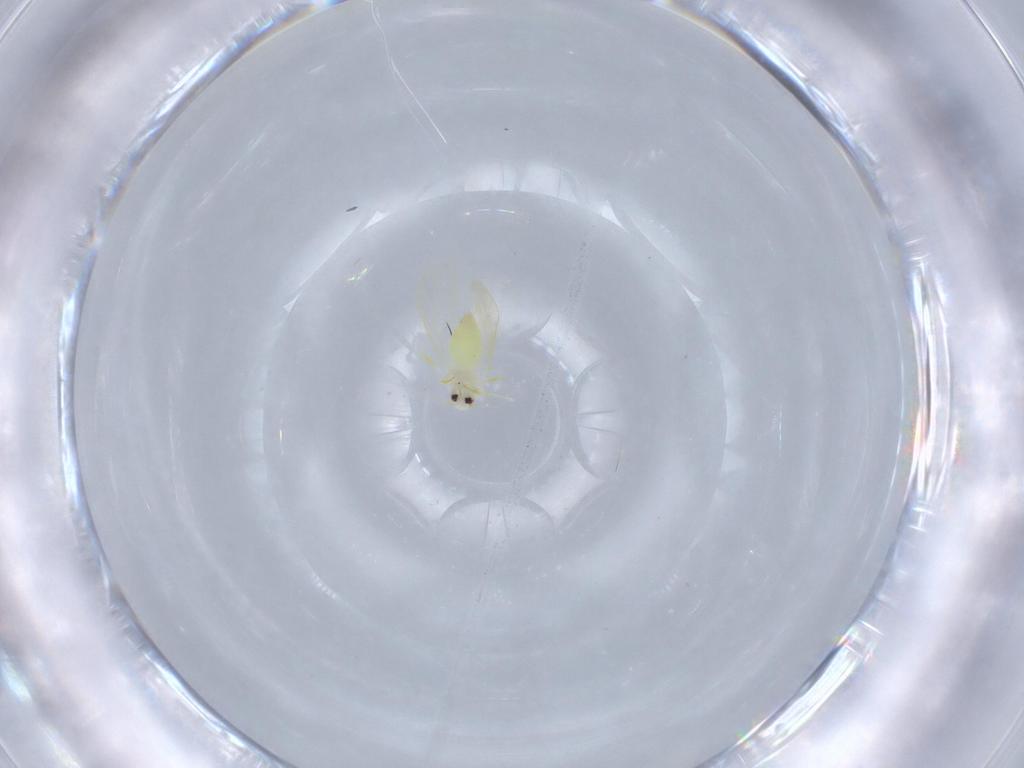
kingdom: Animalia
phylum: Arthropoda
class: Insecta
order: Hemiptera
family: Aleyrodidae
